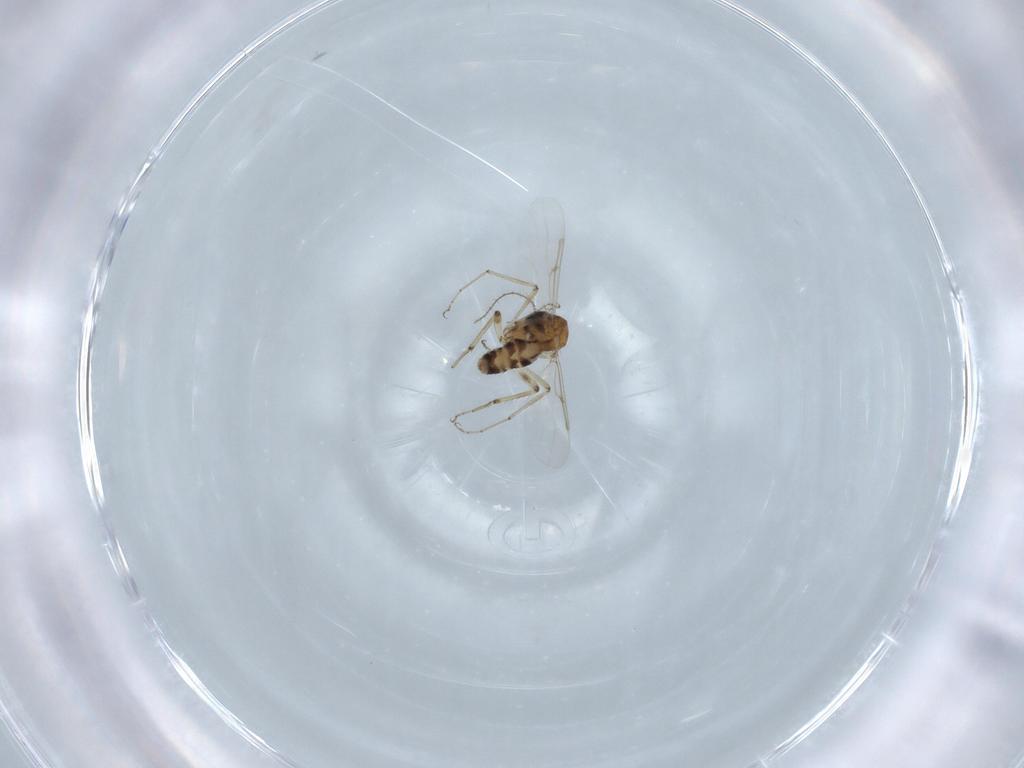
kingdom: Animalia
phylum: Arthropoda
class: Insecta
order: Diptera
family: Ceratopogonidae
